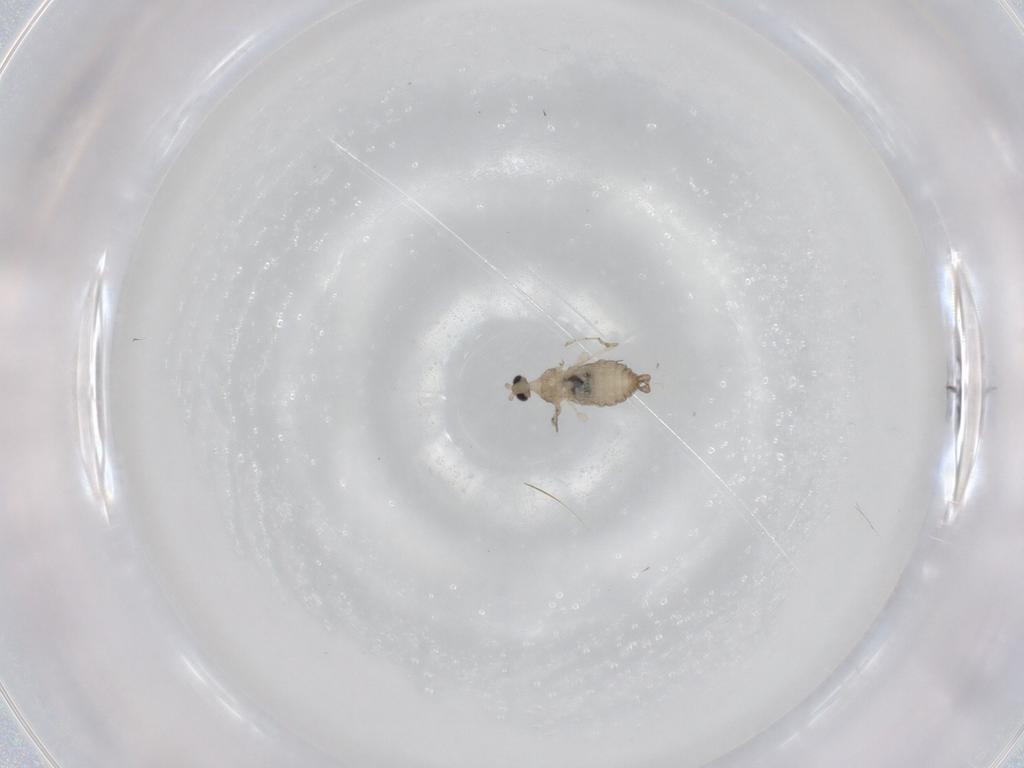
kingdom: Animalia
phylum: Arthropoda
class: Insecta
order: Diptera
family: Cecidomyiidae
